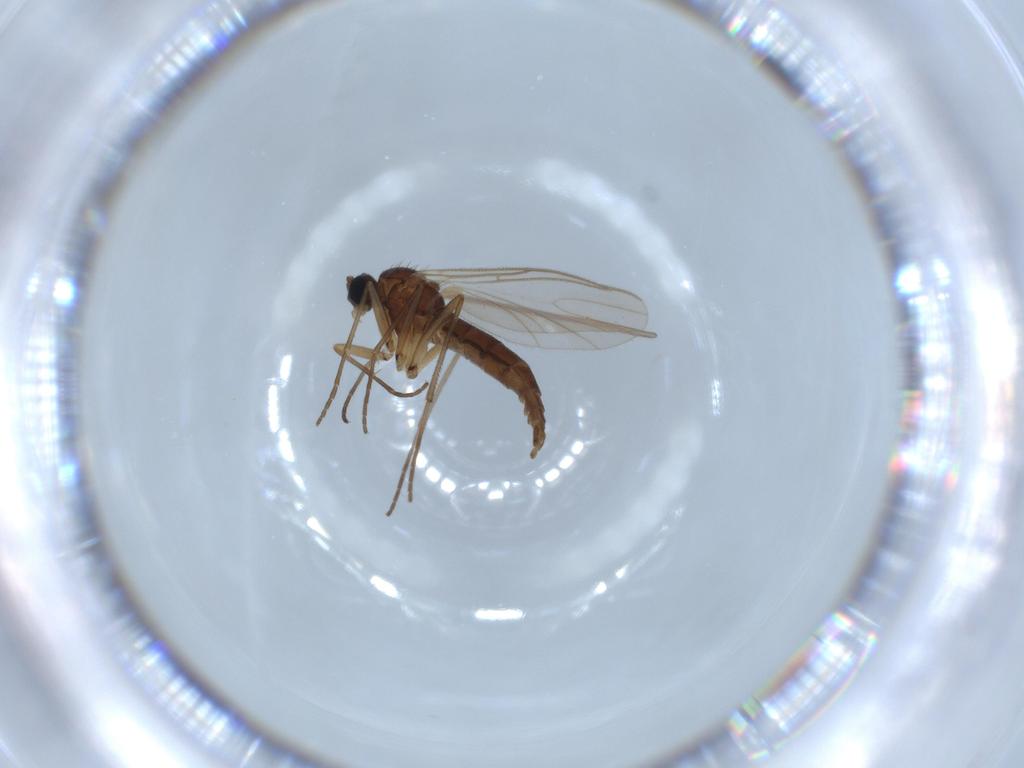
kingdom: Animalia
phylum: Arthropoda
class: Insecta
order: Diptera
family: Sciaridae
